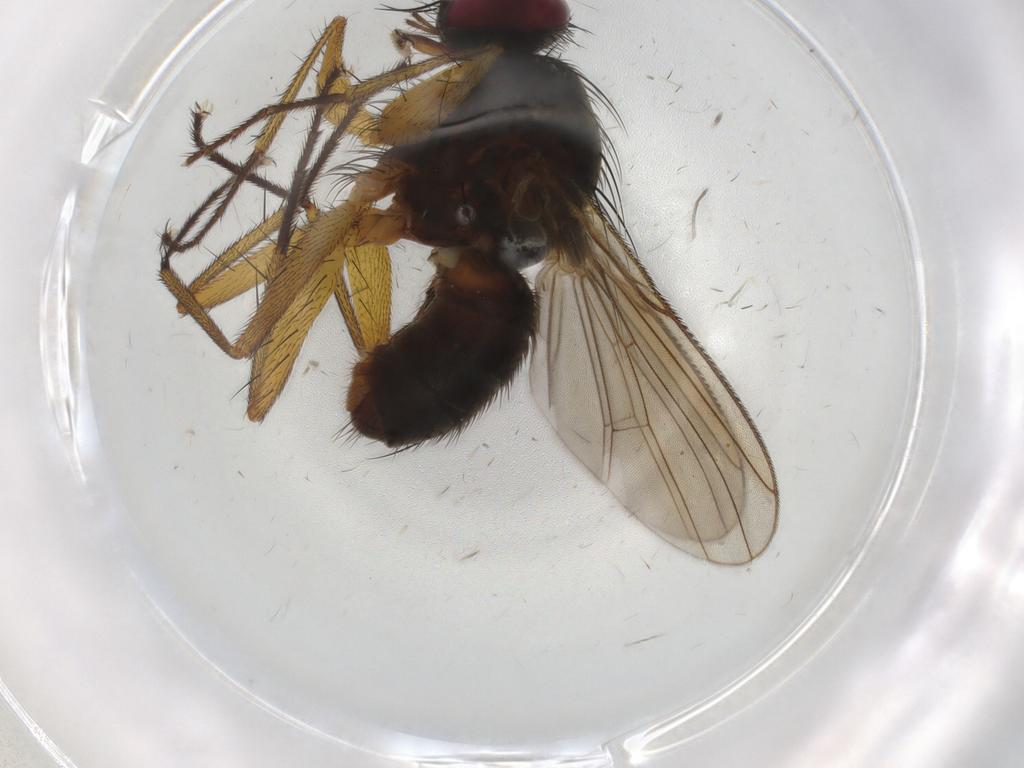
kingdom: Animalia
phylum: Arthropoda
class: Insecta
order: Diptera
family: Muscidae
